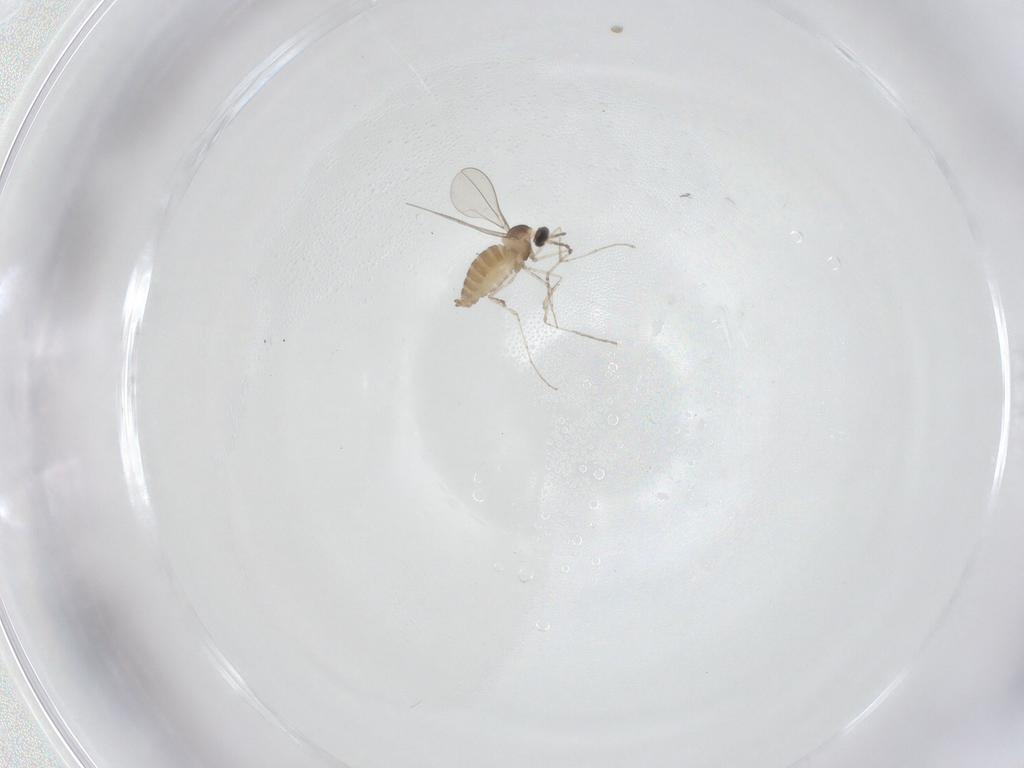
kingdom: Animalia
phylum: Arthropoda
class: Insecta
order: Diptera
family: Cecidomyiidae
